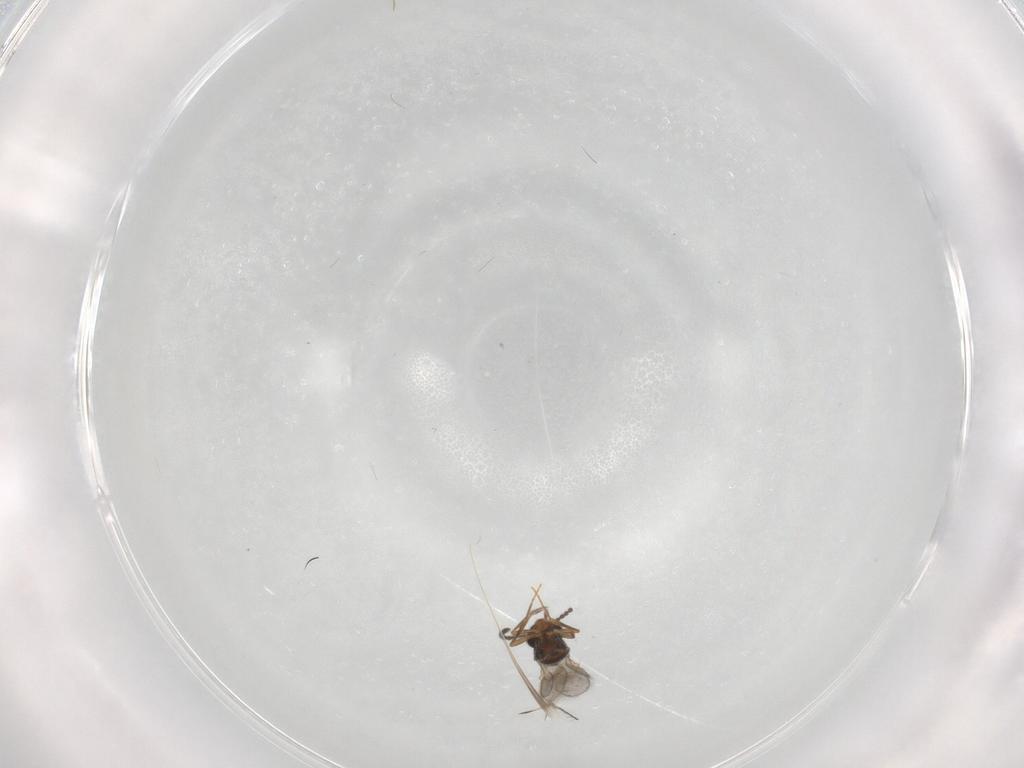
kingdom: Animalia
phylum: Arthropoda
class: Insecta
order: Hymenoptera
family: Scelionidae
